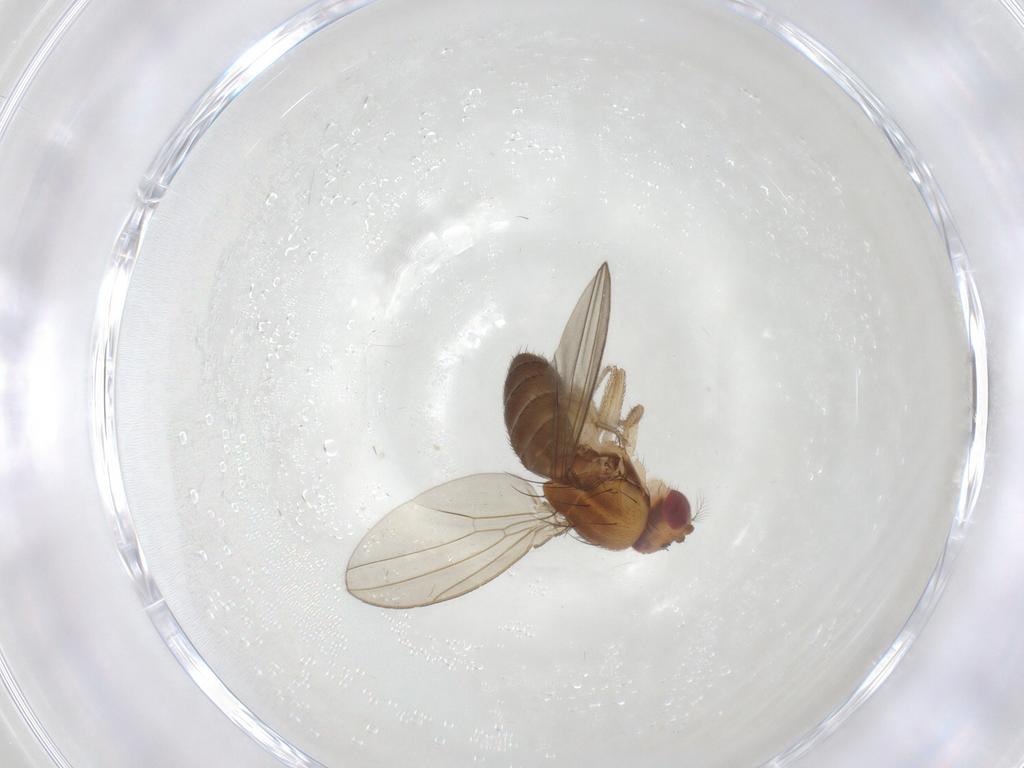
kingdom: Animalia
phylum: Arthropoda
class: Insecta
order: Diptera
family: Drosophilidae
